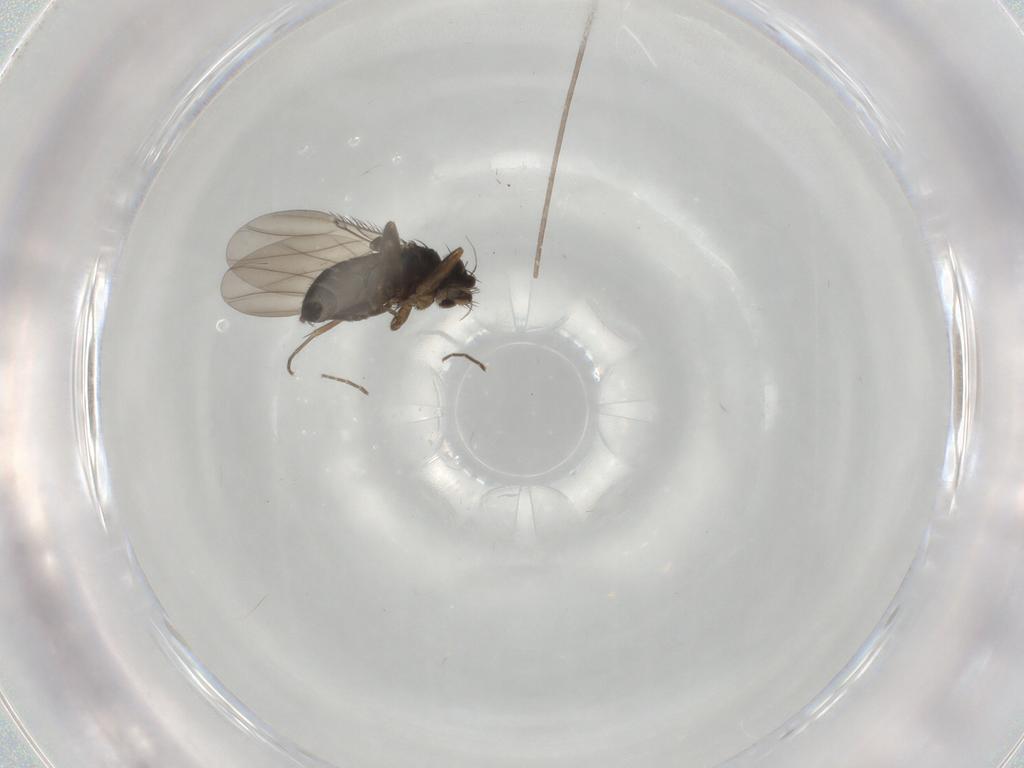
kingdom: Animalia
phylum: Arthropoda
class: Insecta
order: Diptera
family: Phoridae
